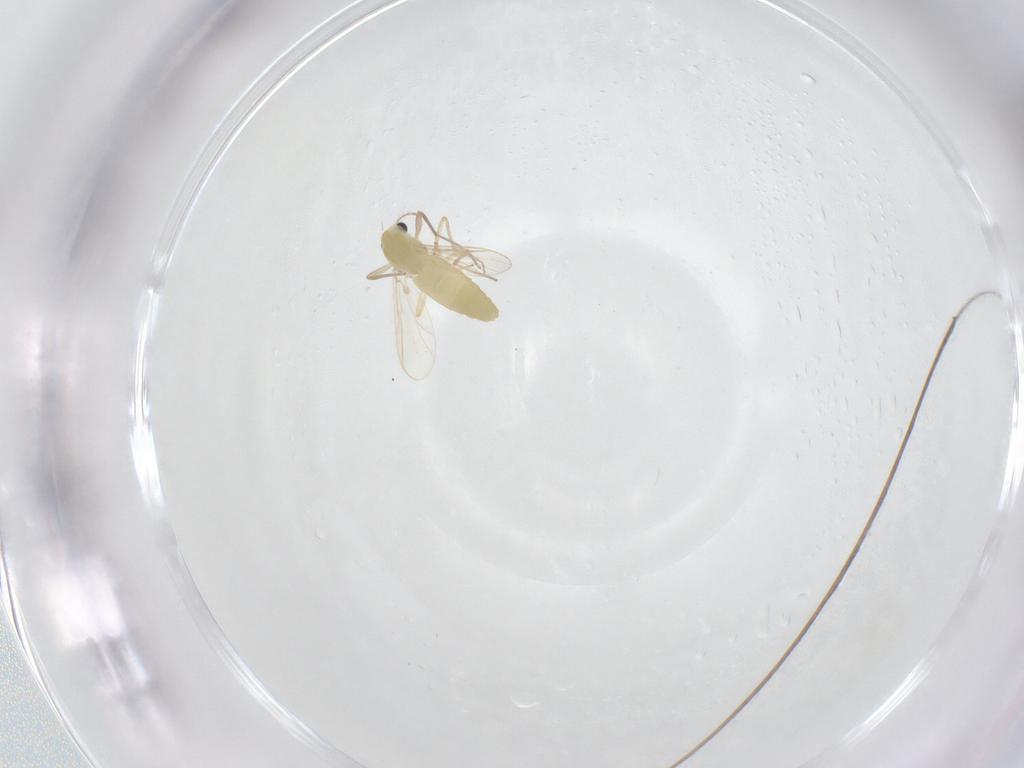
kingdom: Animalia
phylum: Arthropoda
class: Insecta
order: Diptera
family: Chironomidae
